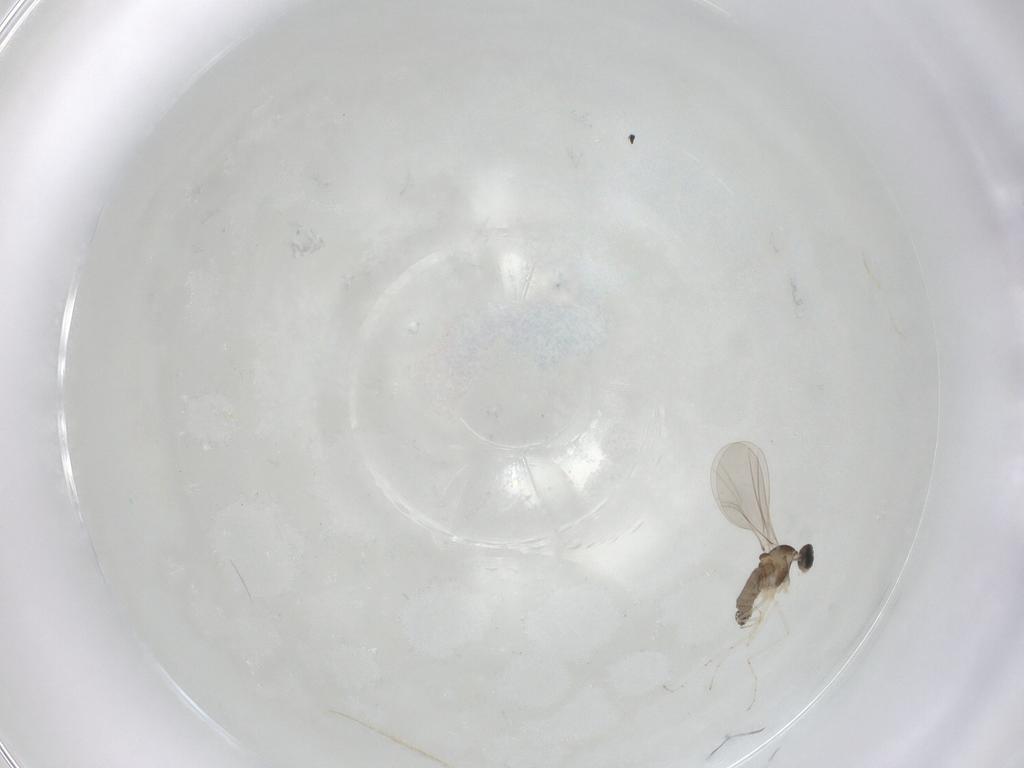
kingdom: Animalia
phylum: Arthropoda
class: Insecta
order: Diptera
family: Cecidomyiidae
